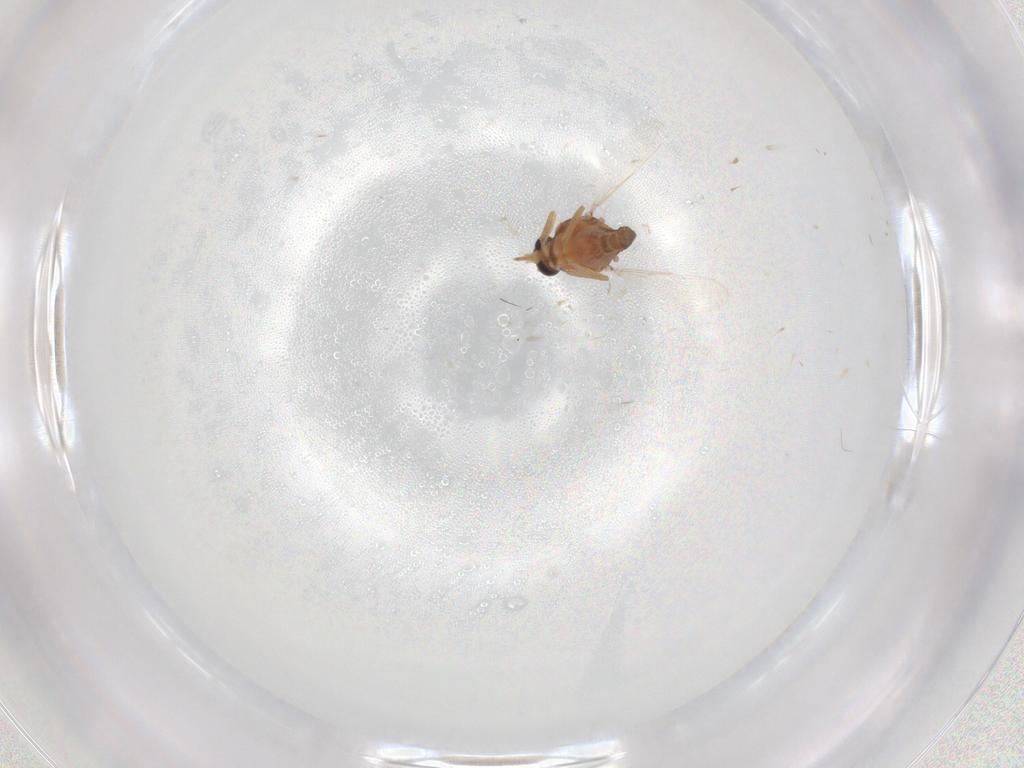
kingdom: Animalia
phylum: Arthropoda
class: Insecta
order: Diptera
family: Ceratopogonidae
